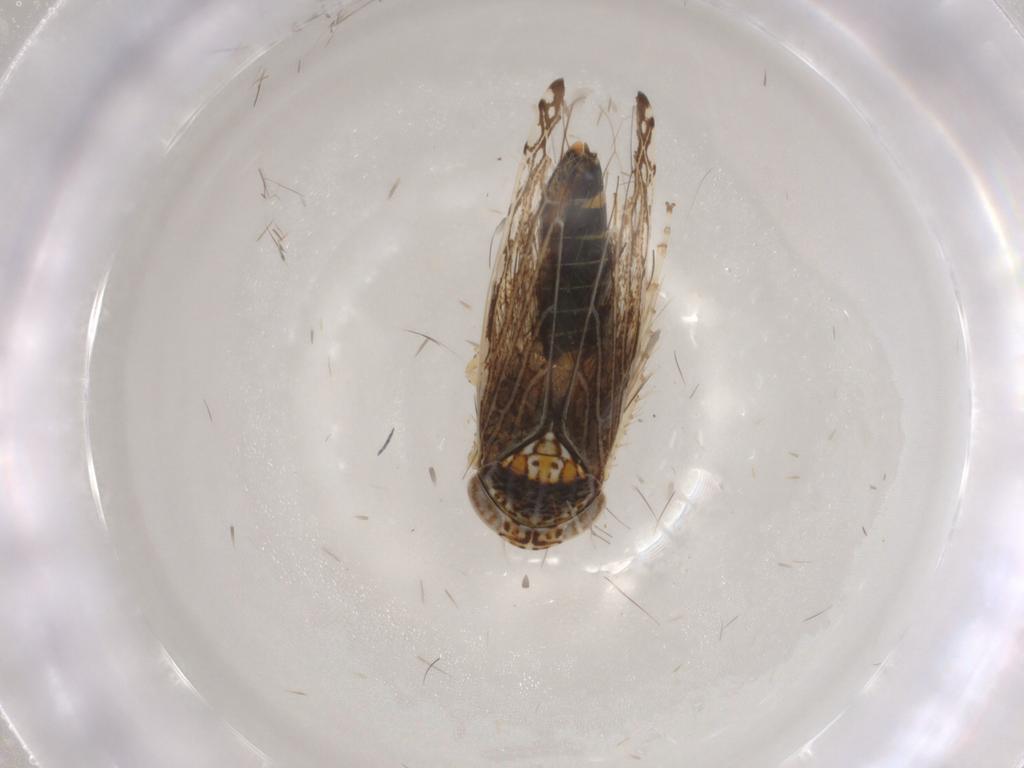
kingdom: Animalia
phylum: Arthropoda
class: Insecta
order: Hemiptera
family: Cicadellidae
